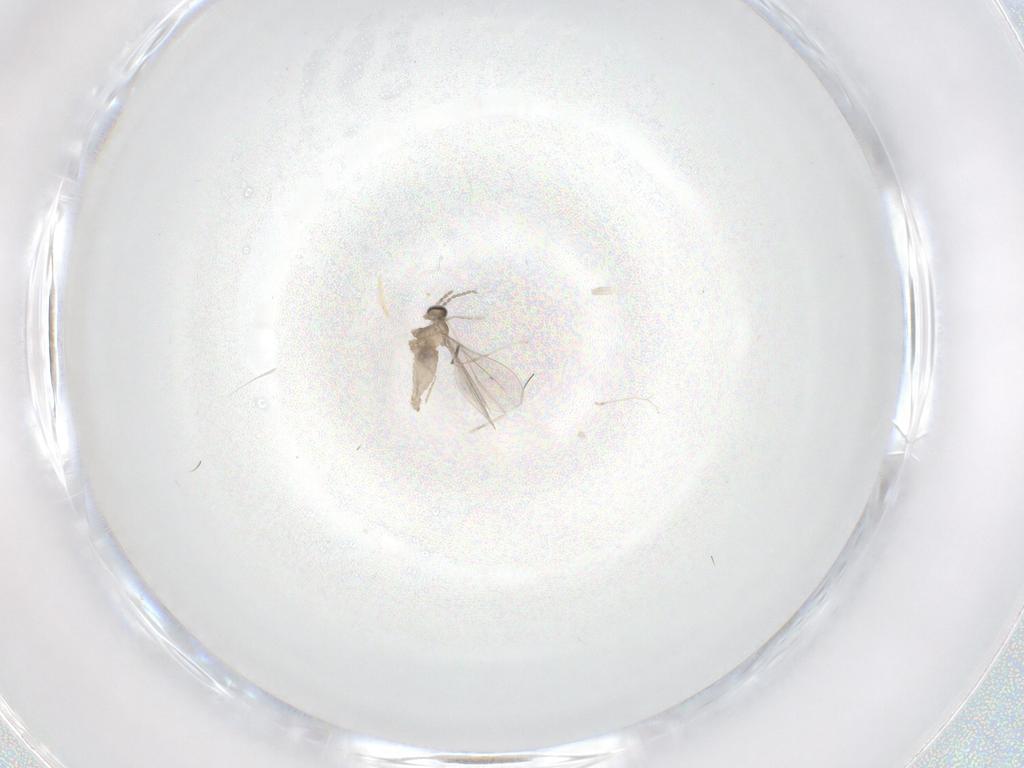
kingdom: Animalia
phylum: Arthropoda
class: Insecta
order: Diptera
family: Cecidomyiidae
